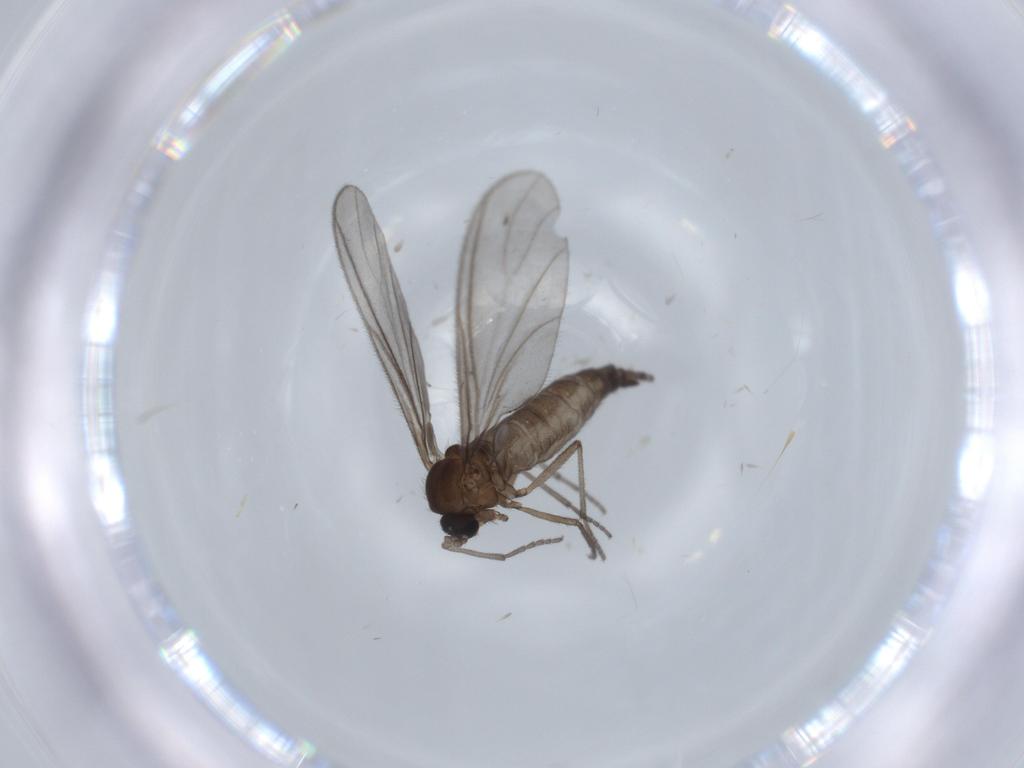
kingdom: Animalia
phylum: Arthropoda
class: Insecta
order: Diptera
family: Sciaridae
